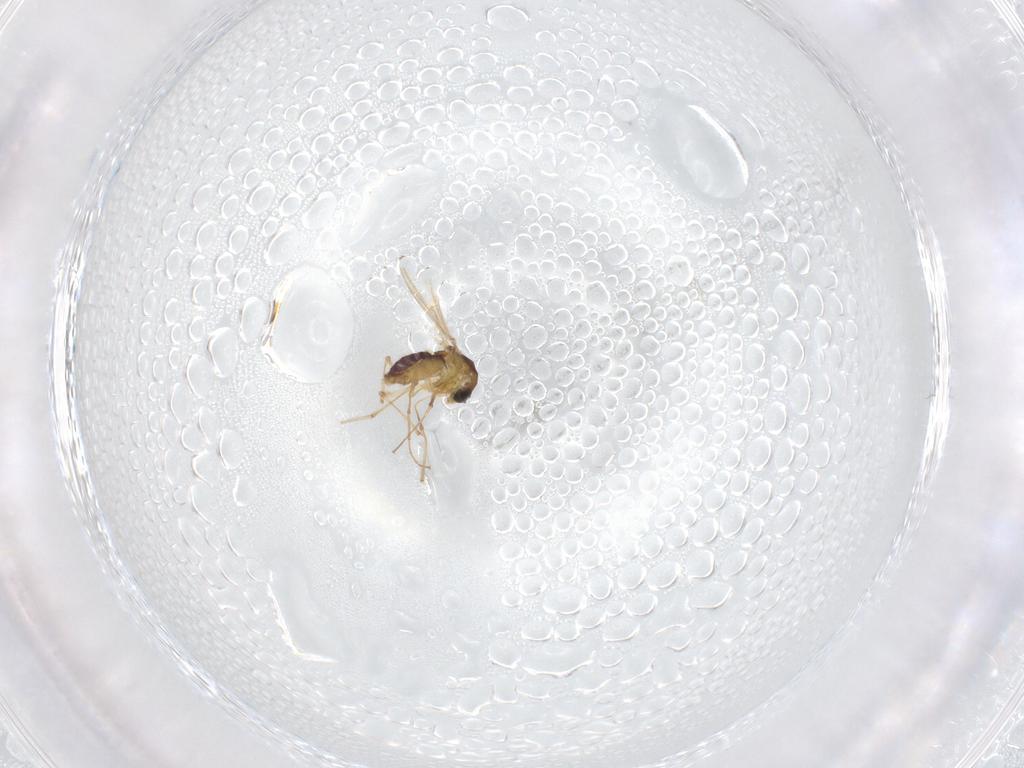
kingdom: Animalia
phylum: Arthropoda
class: Insecta
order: Diptera
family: Chironomidae
